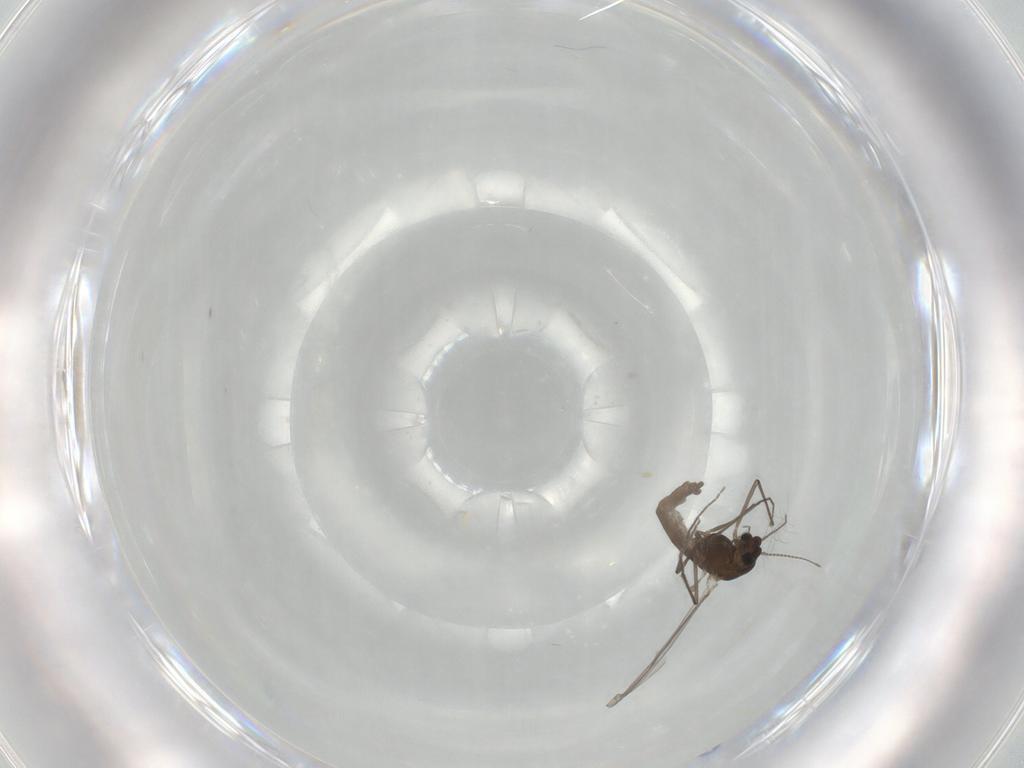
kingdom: Animalia
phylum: Arthropoda
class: Insecta
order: Diptera
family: Chironomidae
